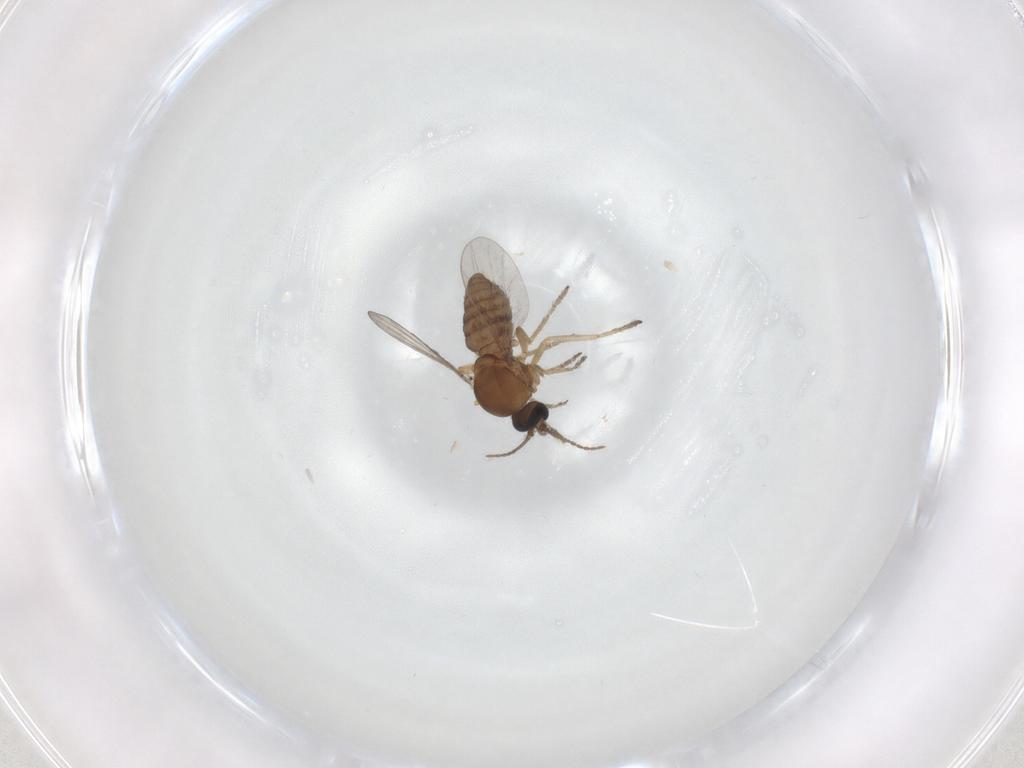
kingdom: Animalia
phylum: Arthropoda
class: Insecta
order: Diptera
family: Ceratopogonidae
